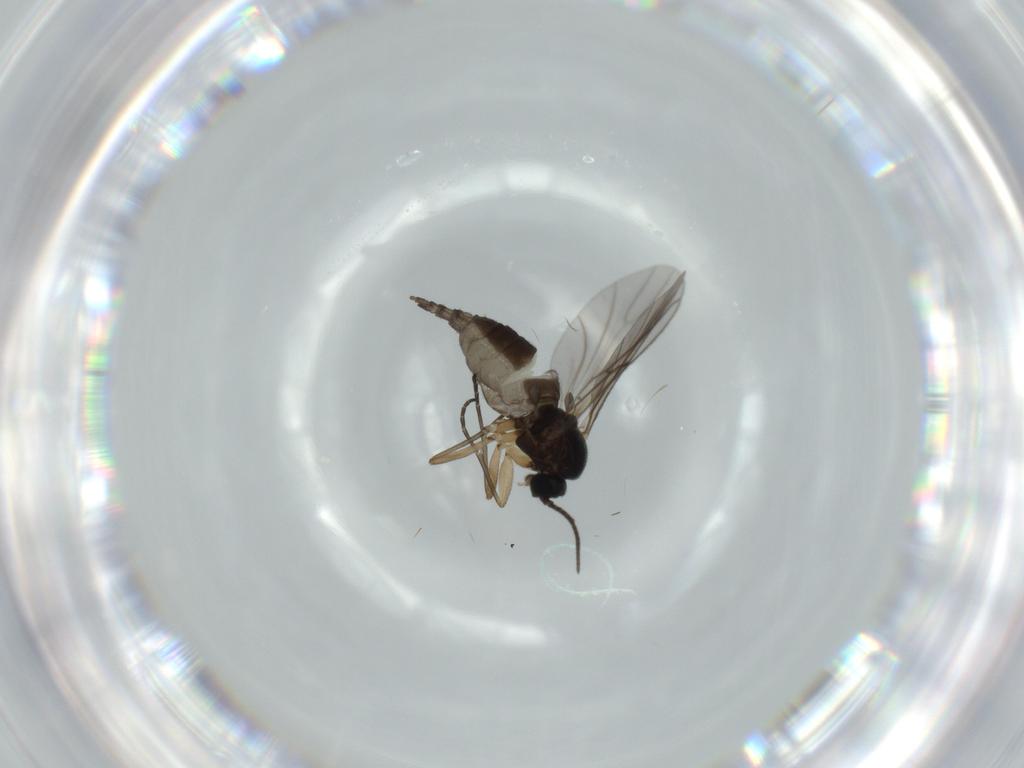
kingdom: Animalia
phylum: Arthropoda
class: Insecta
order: Diptera
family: Sciaridae
